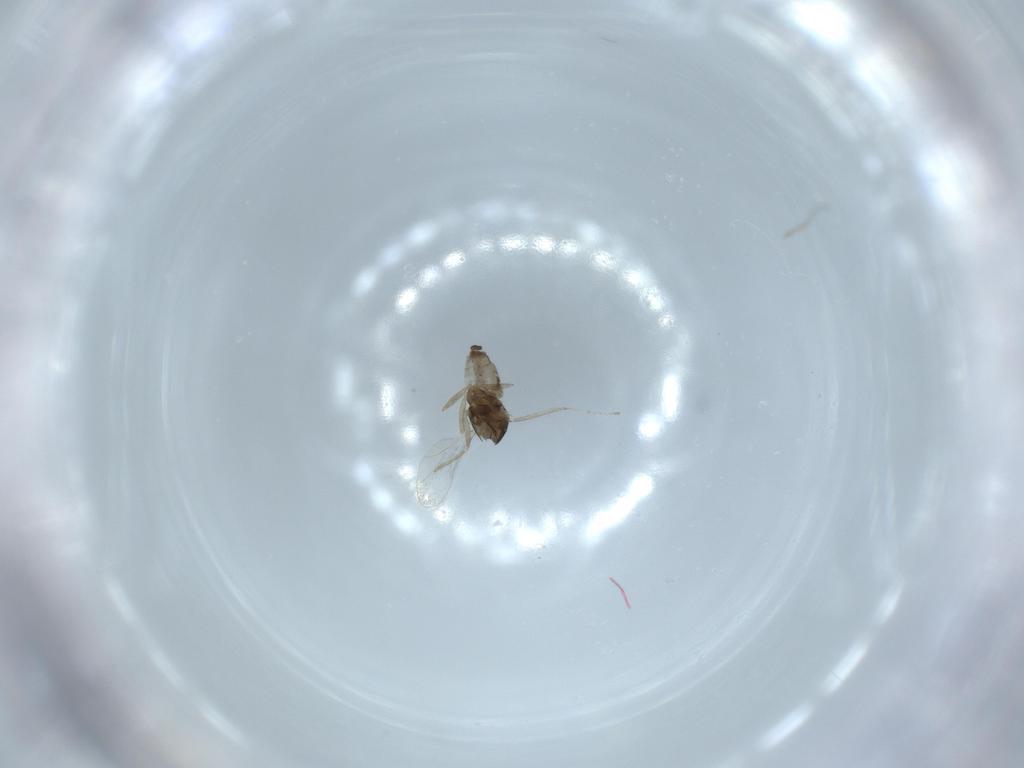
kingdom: Animalia
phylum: Arthropoda
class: Insecta
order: Diptera
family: Cecidomyiidae
